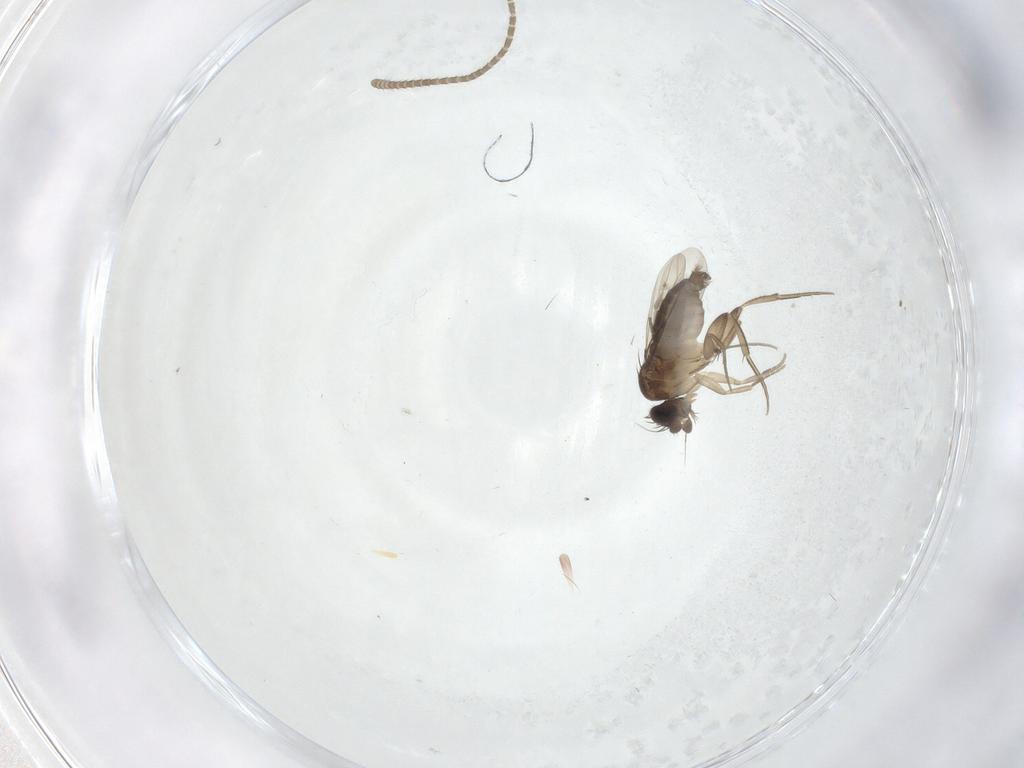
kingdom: Animalia
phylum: Arthropoda
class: Insecta
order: Diptera
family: Phoridae
